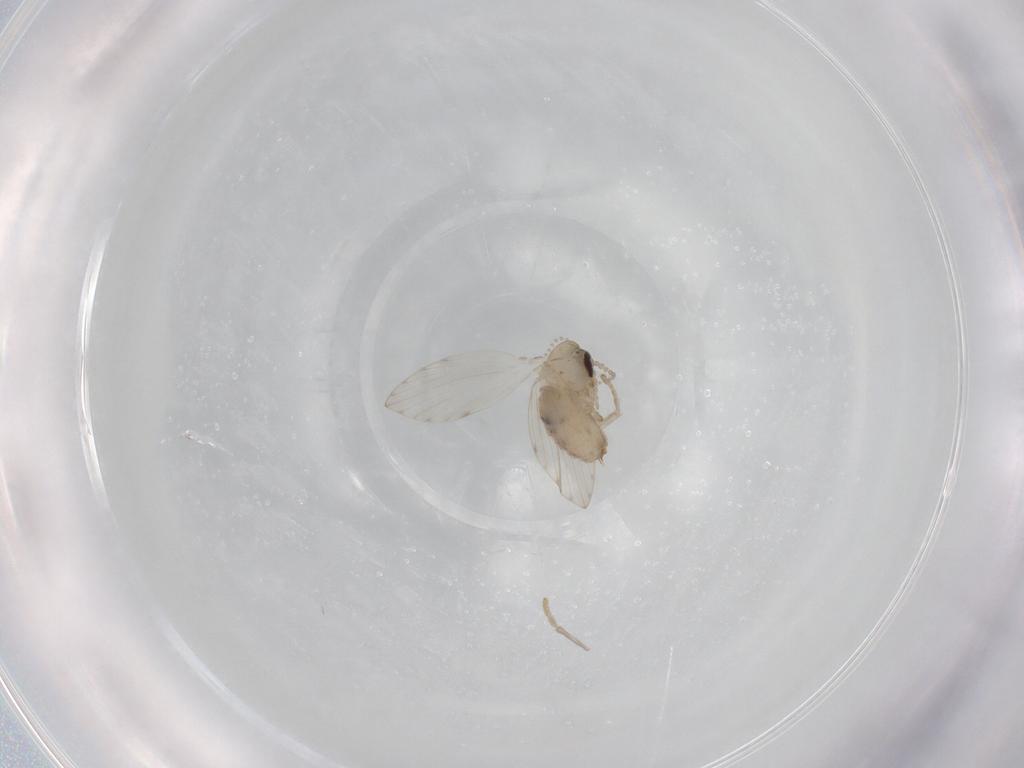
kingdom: Animalia
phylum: Arthropoda
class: Insecta
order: Diptera
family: Psychodidae
